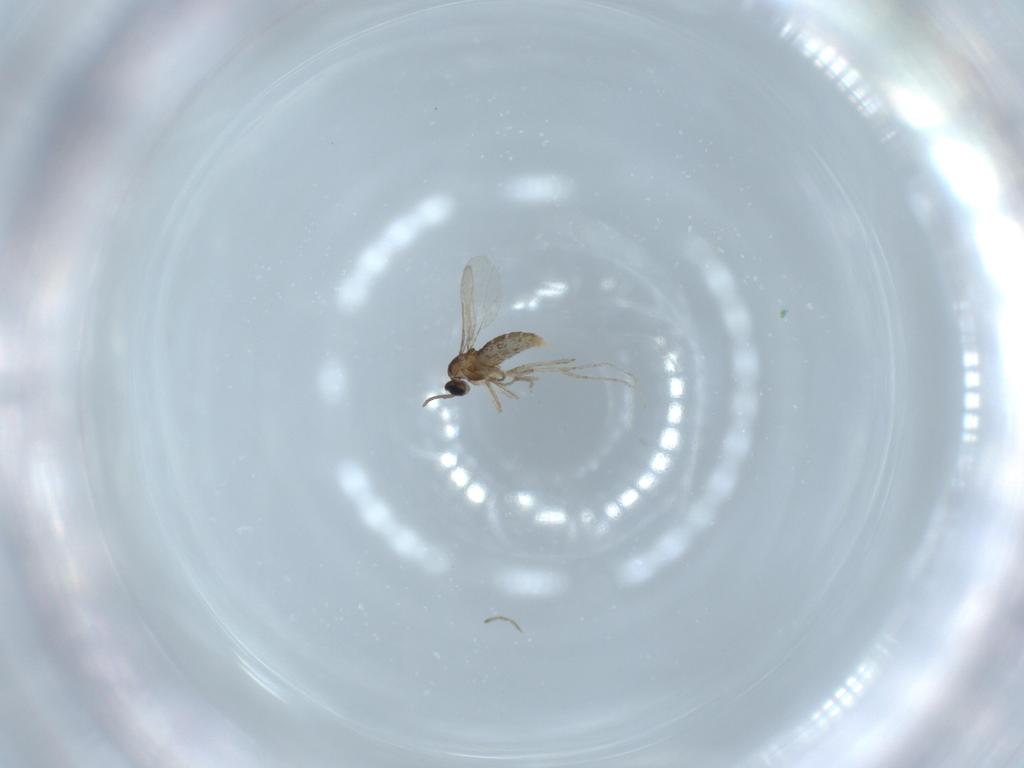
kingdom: Animalia
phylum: Arthropoda
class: Insecta
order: Diptera
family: Cecidomyiidae
